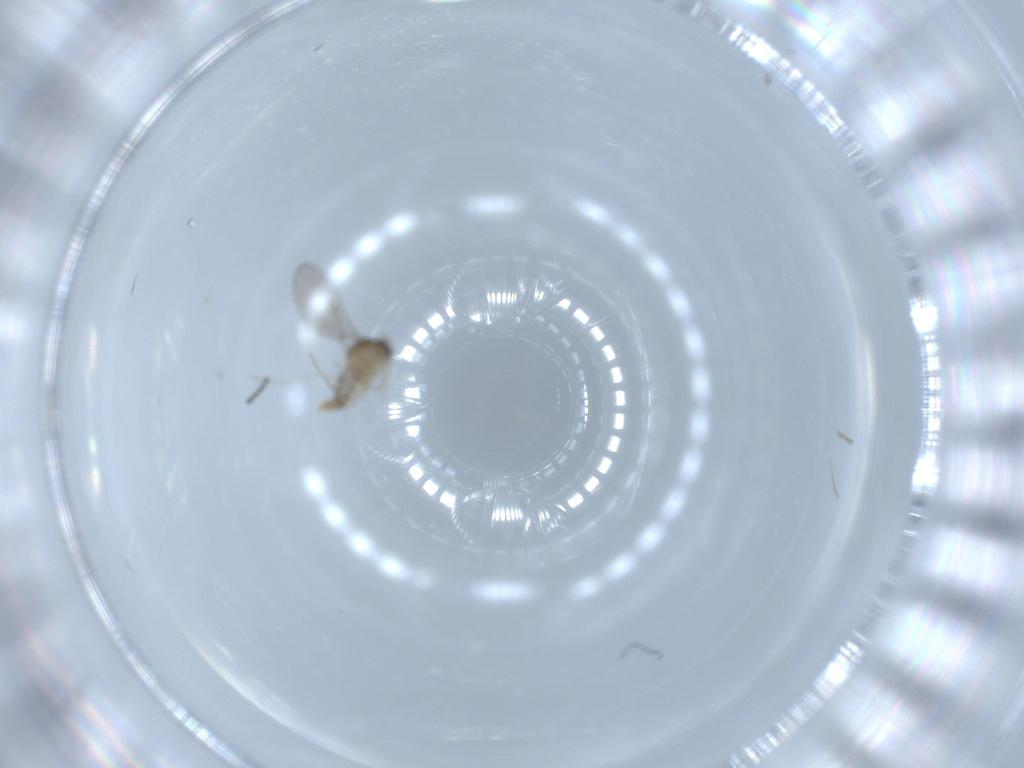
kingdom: Animalia
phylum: Arthropoda
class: Insecta
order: Diptera
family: Cecidomyiidae
